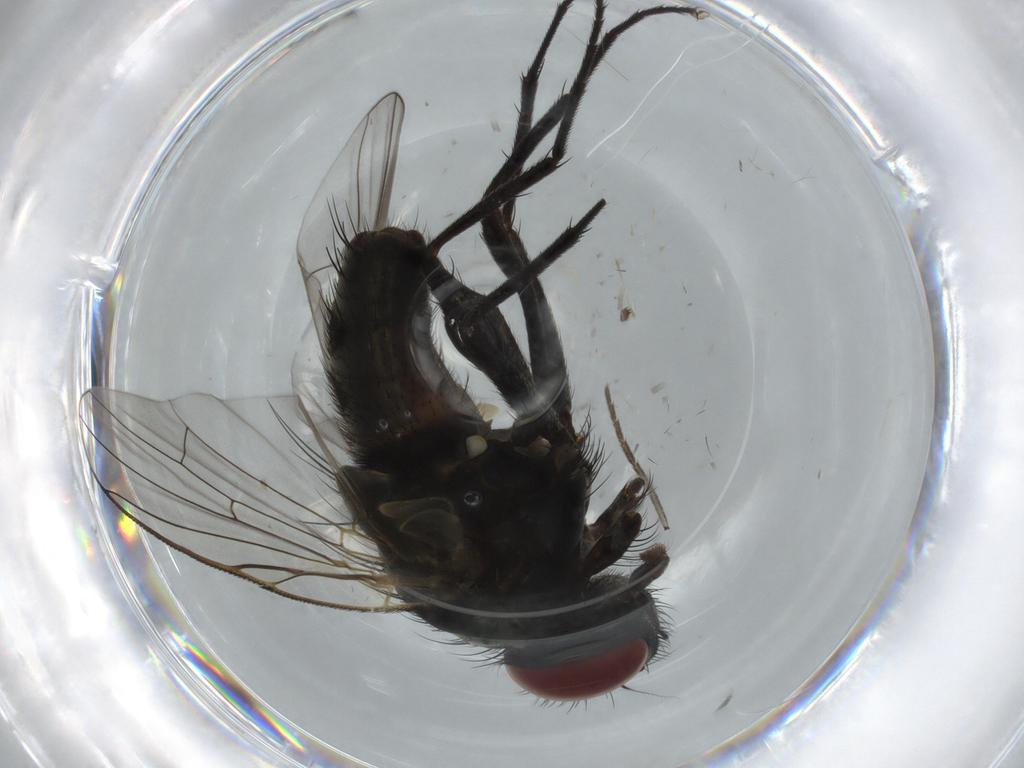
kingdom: Animalia
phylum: Arthropoda
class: Insecta
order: Diptera
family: Muscidae
